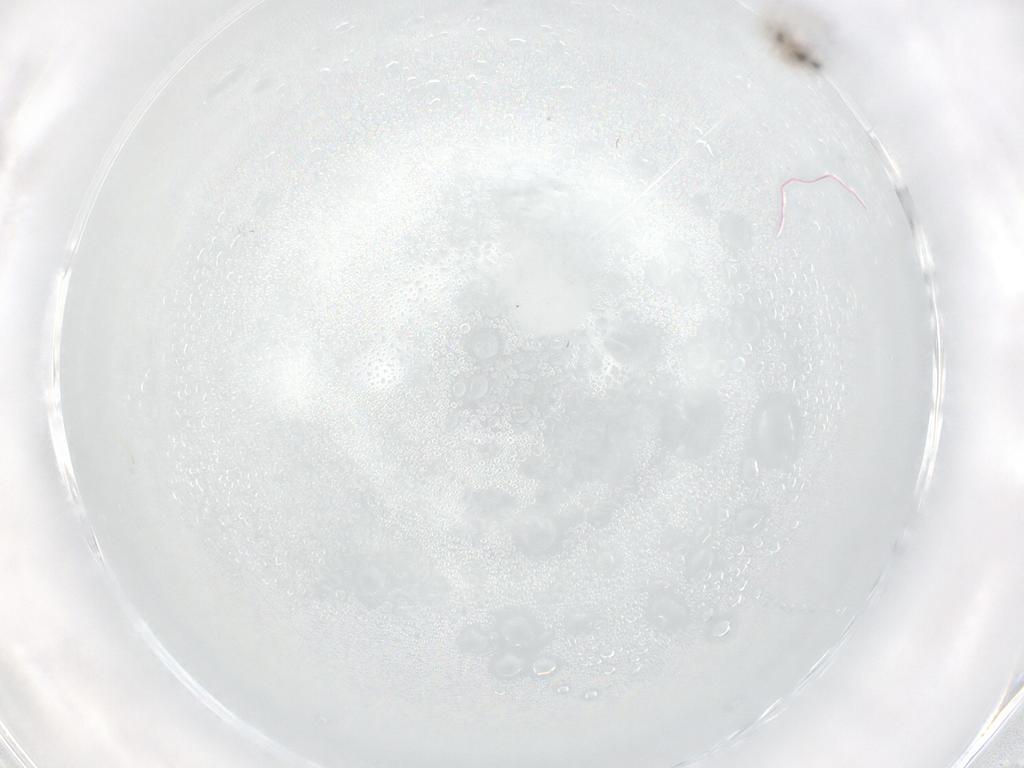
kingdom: Animalia
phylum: Arthropoda
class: Insecta
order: Diptera
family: Cecidomyiidae
